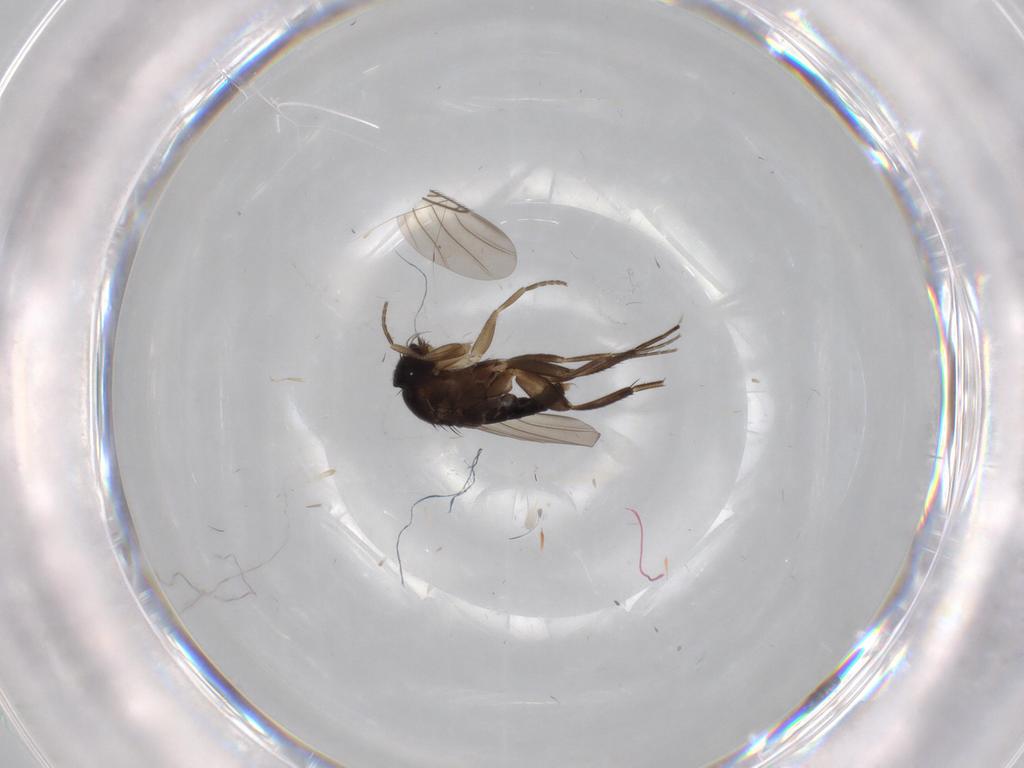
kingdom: Animalia
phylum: Arthropoda
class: Insecta
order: Diptera
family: Phoridae
